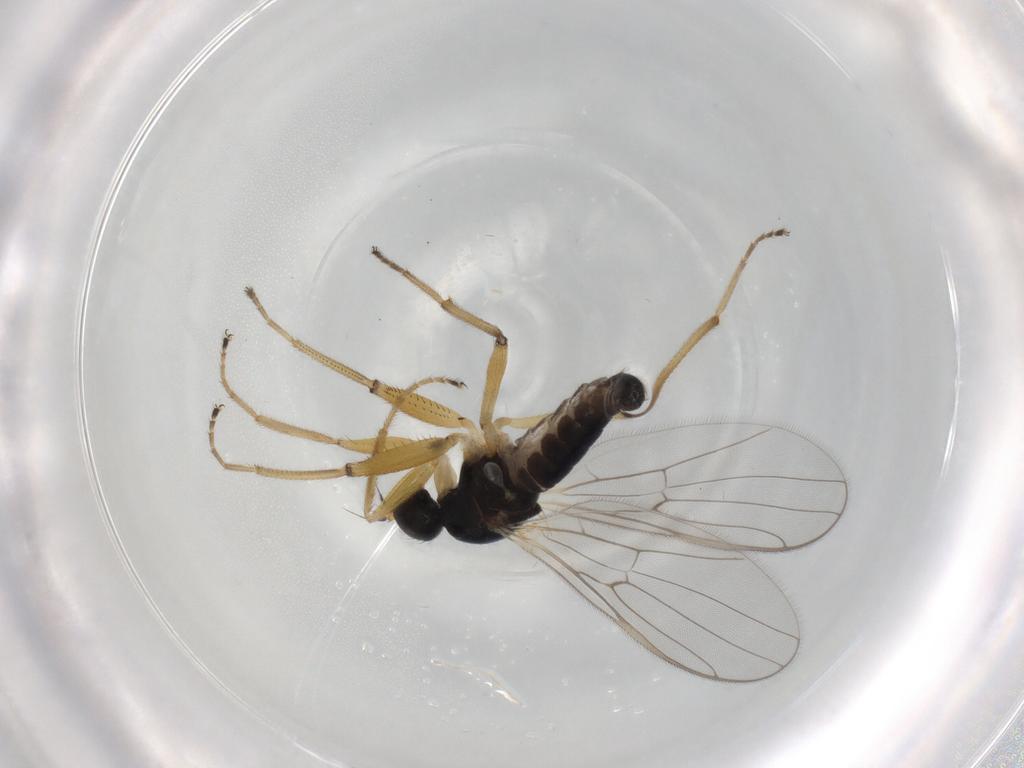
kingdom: Animalia
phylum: Arthropoda
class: Insecta
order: Diptera
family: Hybotidae
